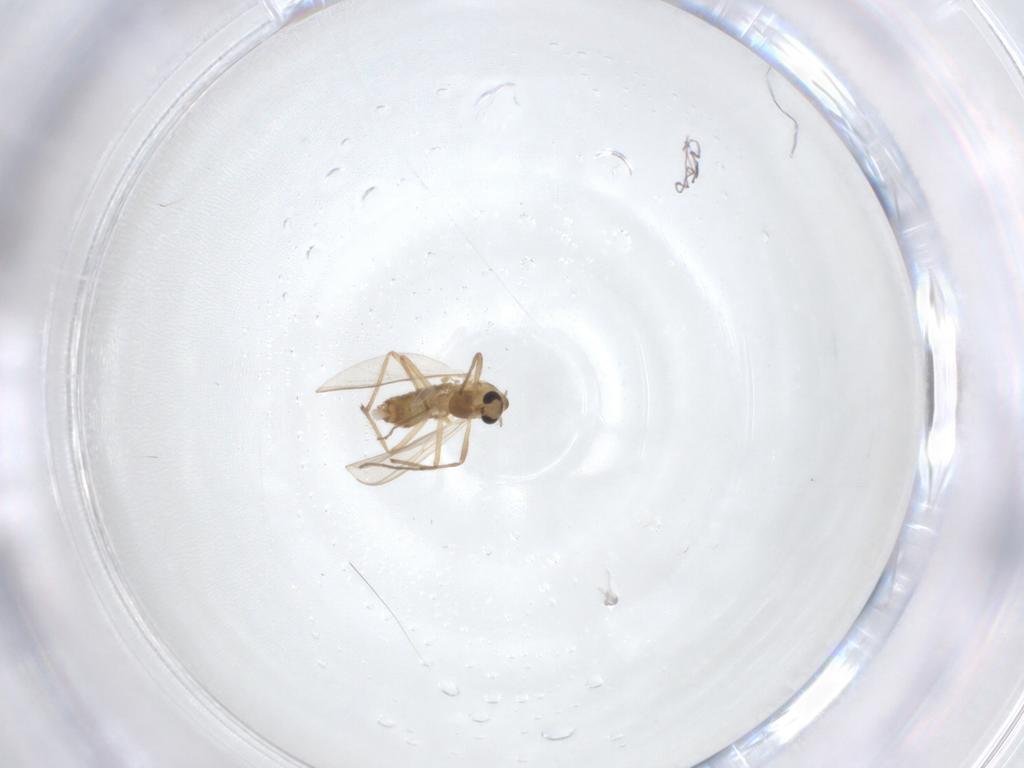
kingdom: Animalia
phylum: Arthropoda
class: Insecta
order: Diptera
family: Chironomidae
